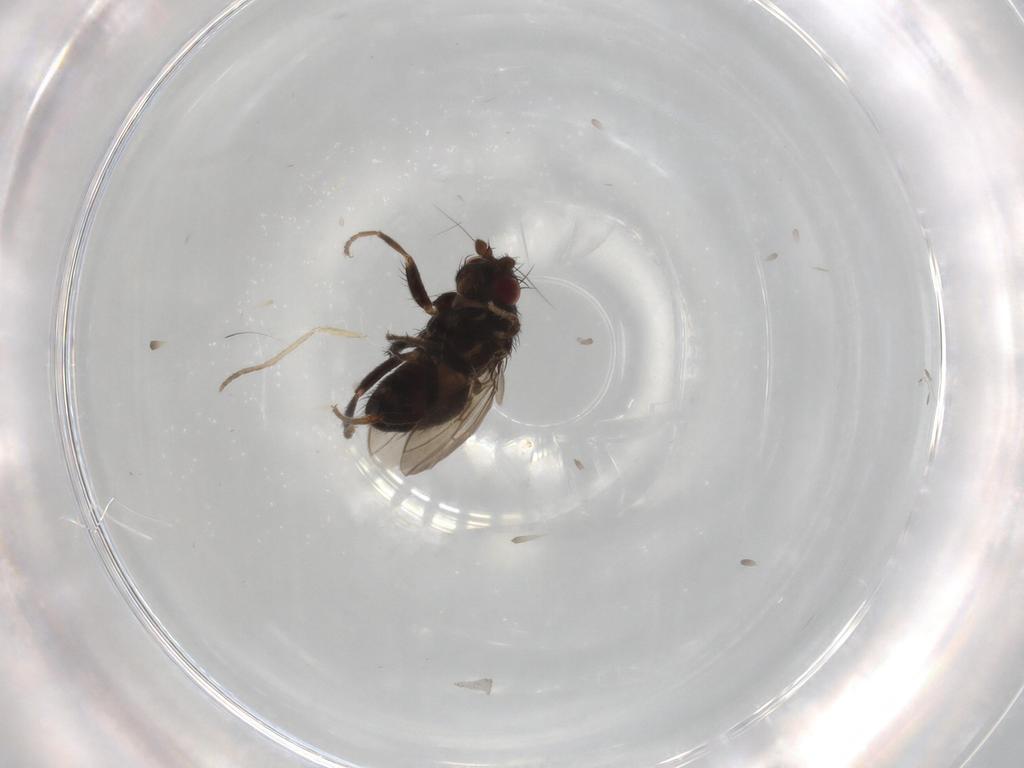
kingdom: Animalia
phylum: Arthropoda
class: Insecta
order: Diptera
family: Sphaeroceridae
